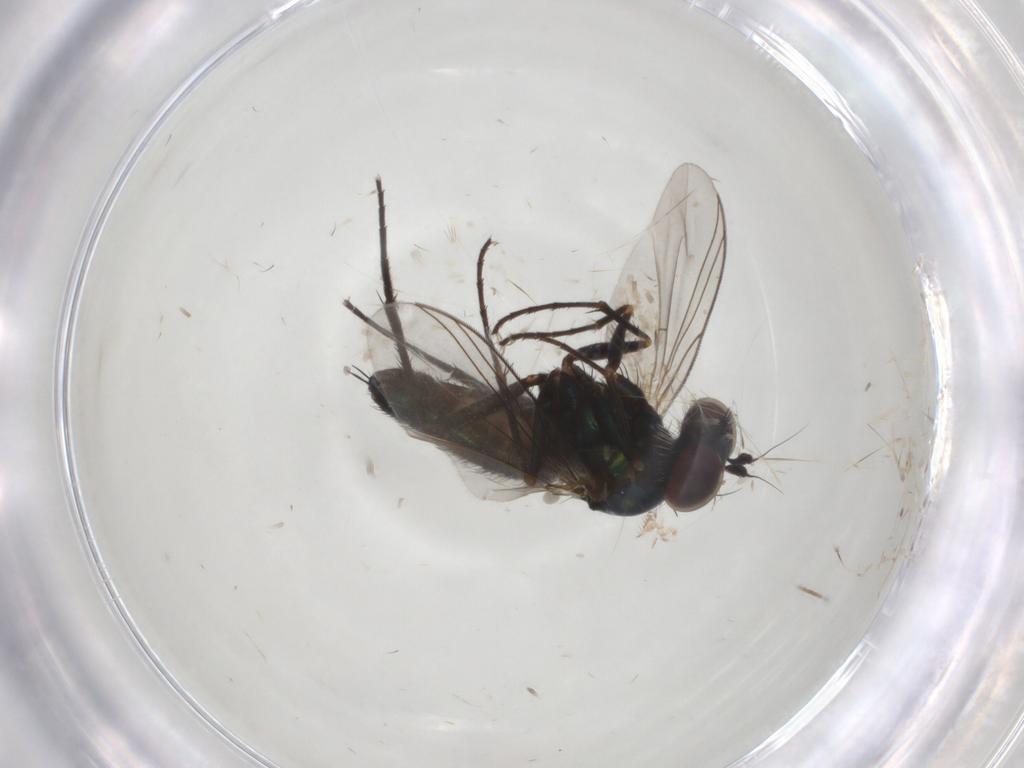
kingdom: Animalia
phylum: Arthropoda
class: Insecta
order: Diptera
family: Dolichopodidae
